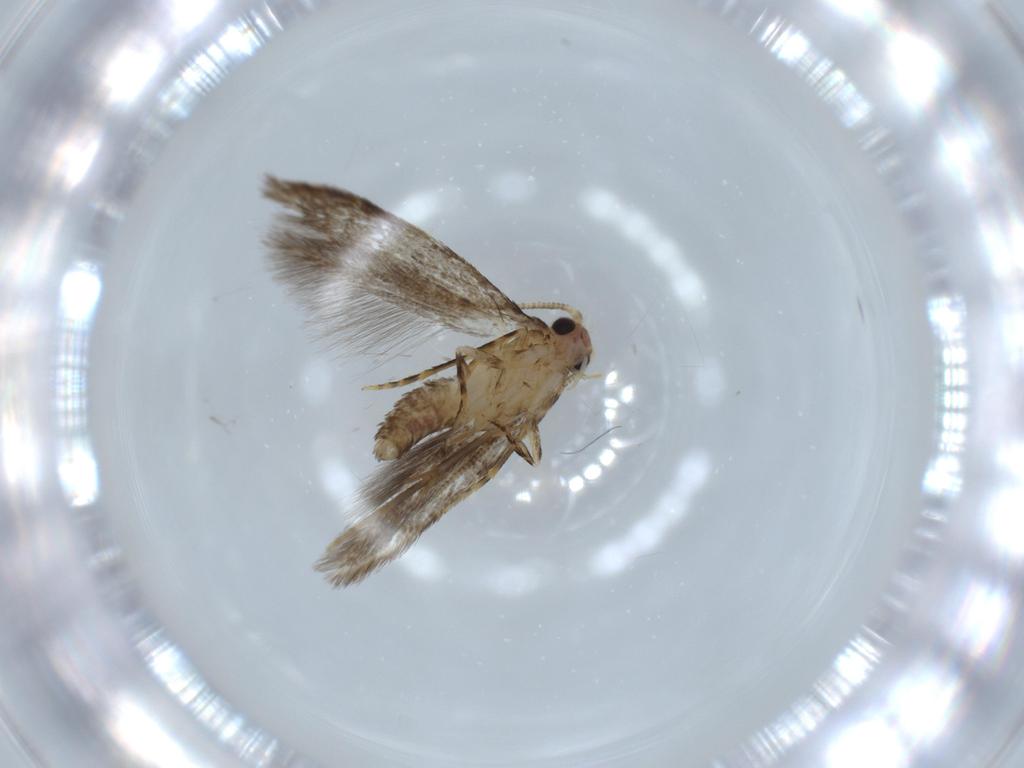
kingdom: Animalia
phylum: Arthropoda
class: Insecta
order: Lepidoptera
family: Tineidae
